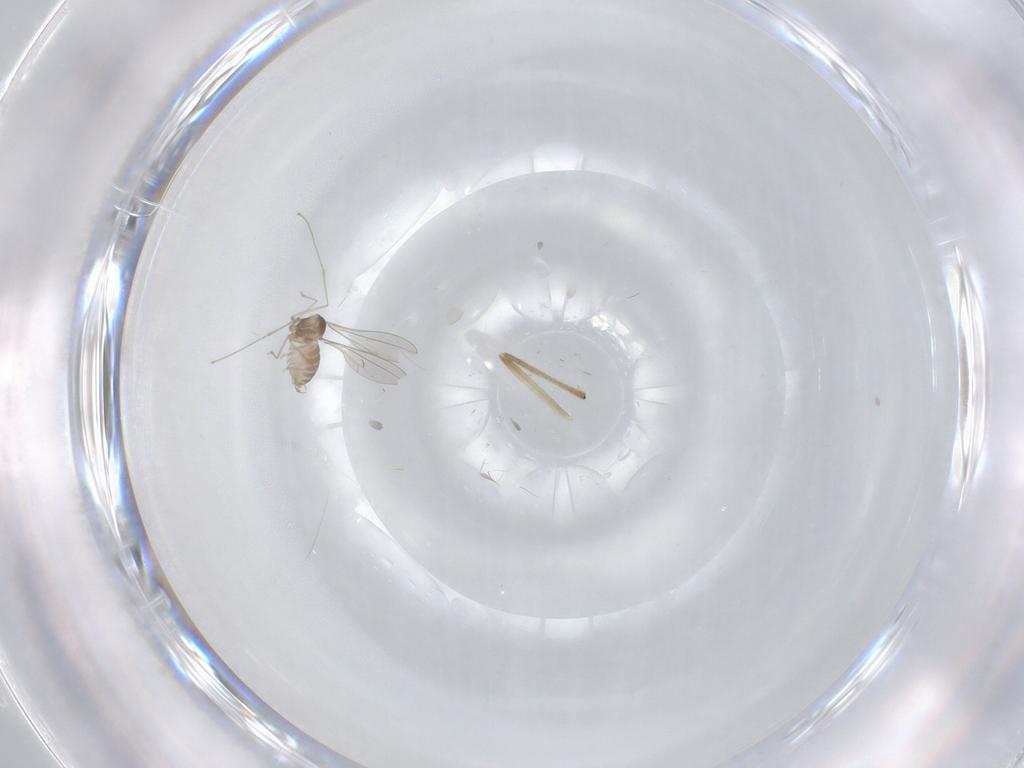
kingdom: Animalia
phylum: Arthropoda
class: Insecta
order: Diptera
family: Chironomidae
